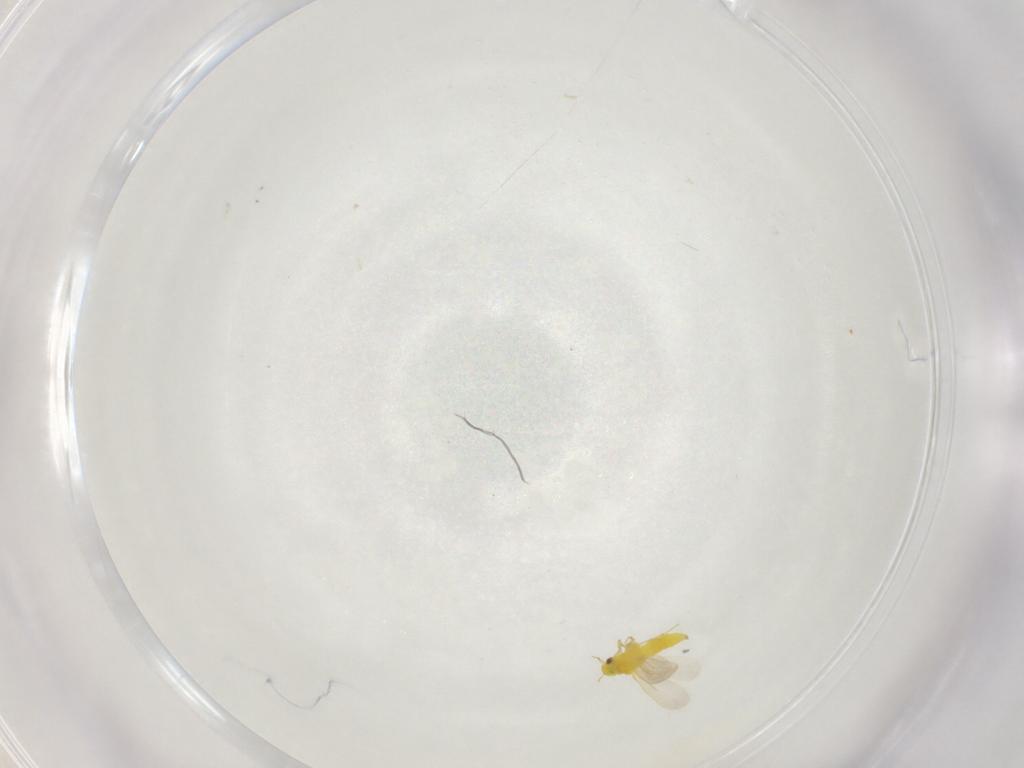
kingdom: Animalia
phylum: Arthropoda
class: Insecta
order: Hemiptera
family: Aleyrodidae
